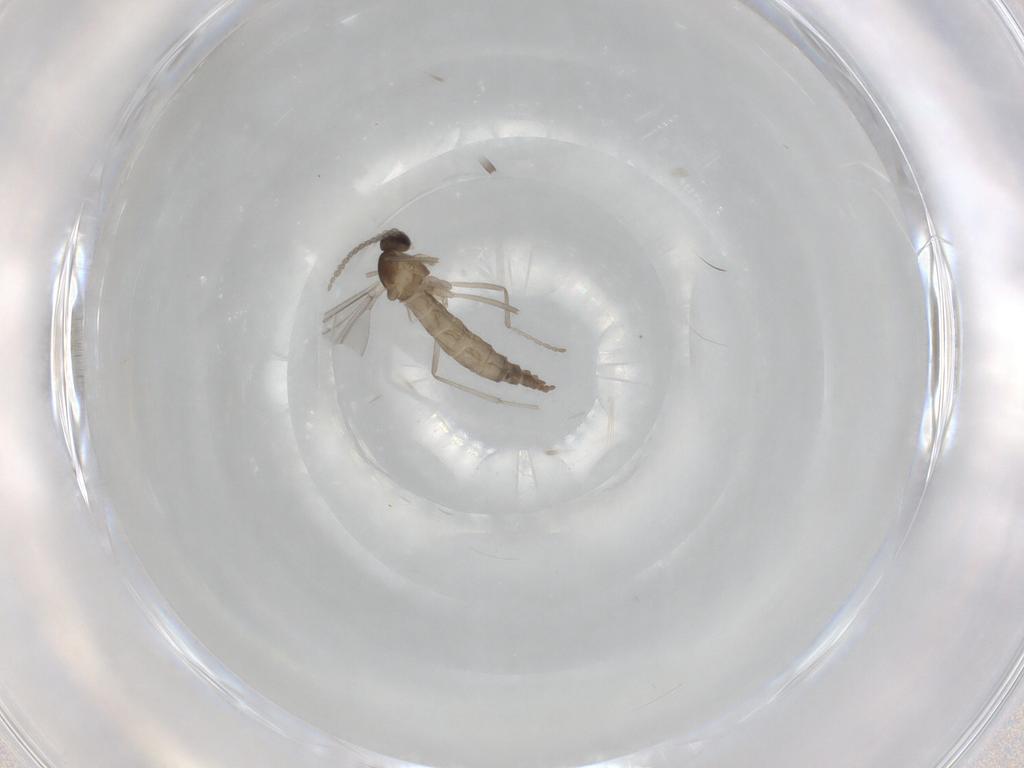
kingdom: Animalia
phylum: Arthropoda
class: Insecta
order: Diptera
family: Cecidomyiidae
